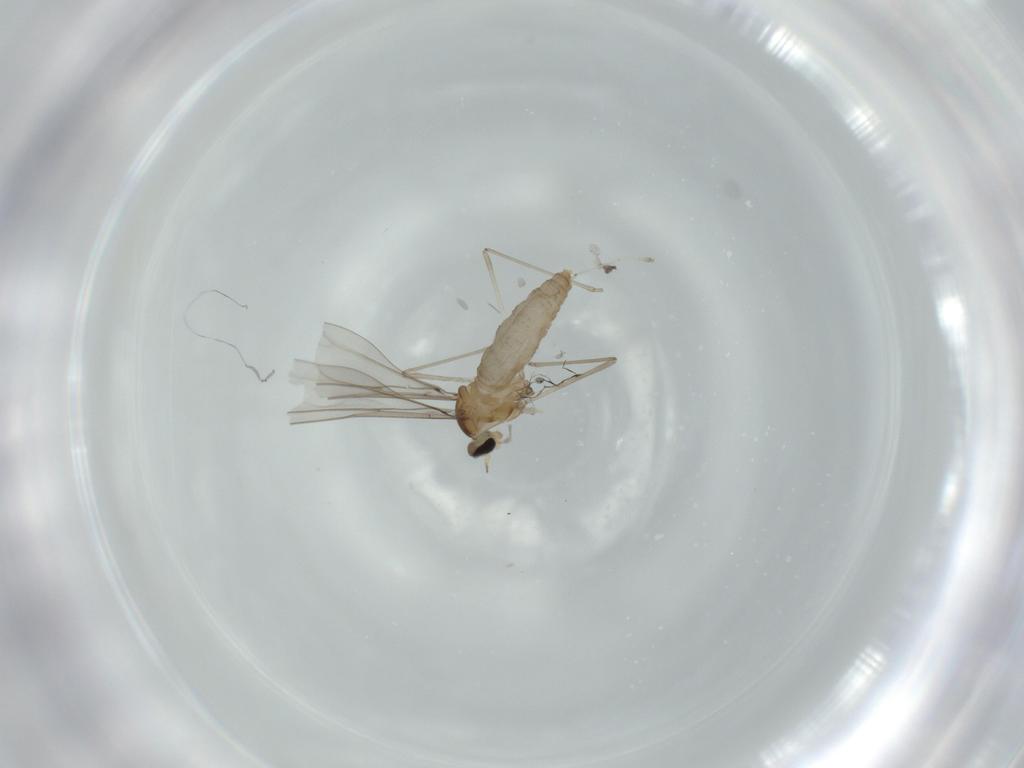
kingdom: Animalia
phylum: Arthropoda
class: Insecta
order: Diptera
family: Cecidomyiidae
